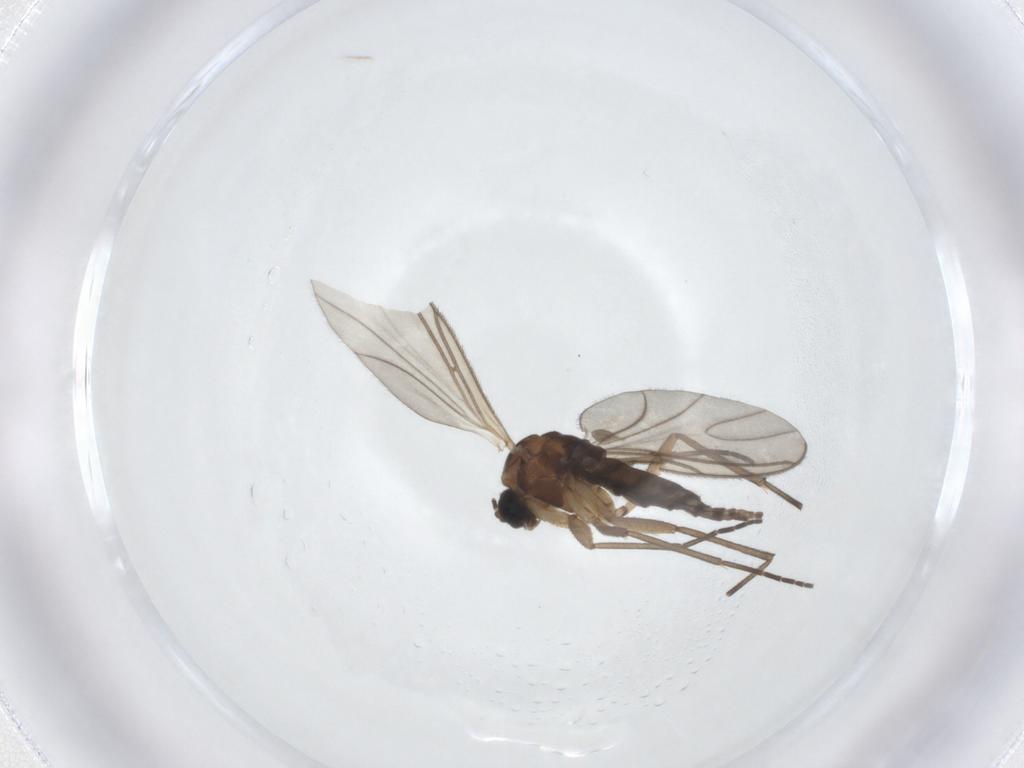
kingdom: Animalia
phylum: Arthropoda
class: Insecta
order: Diptera
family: Sciaridae
